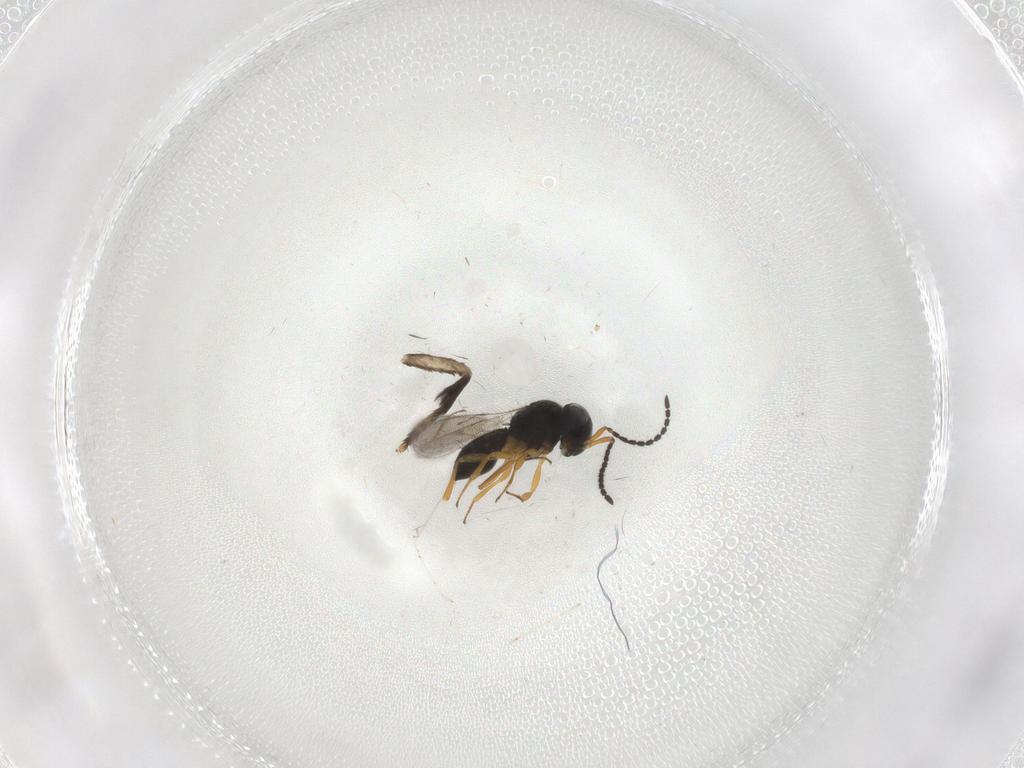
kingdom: Animalia
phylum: Arthropoda
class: Insecta
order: Hymenoptera
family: Scelionidae
